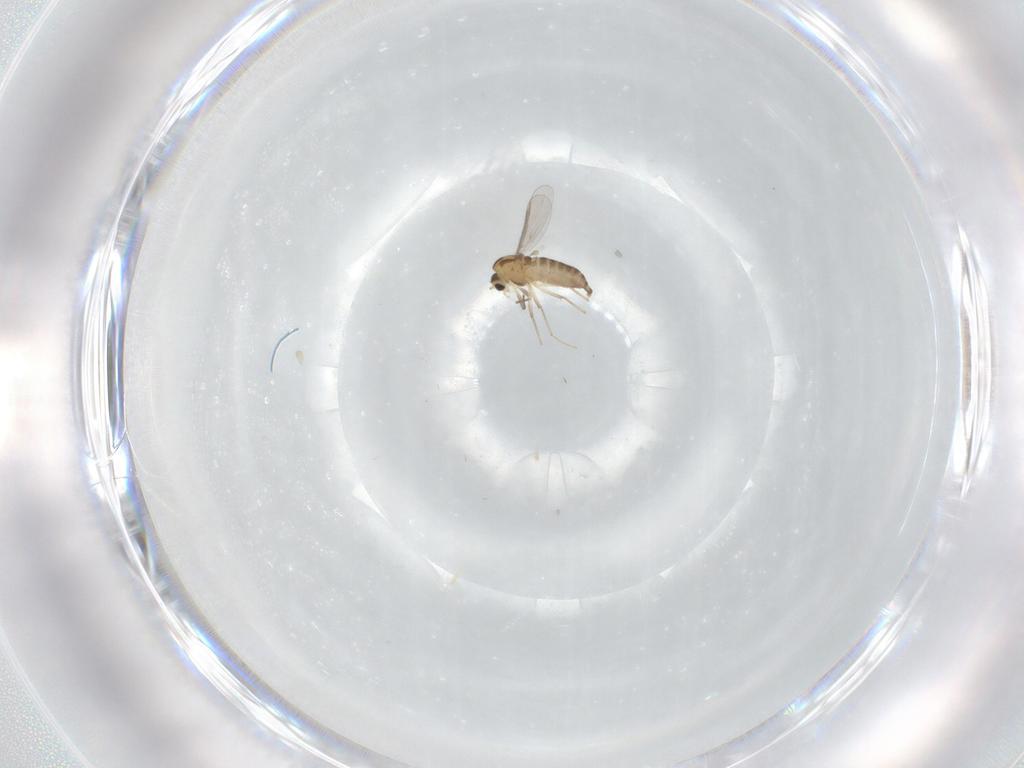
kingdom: Animalia
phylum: Arthropoda
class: Insecta
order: Diptera
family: Chironomidae
